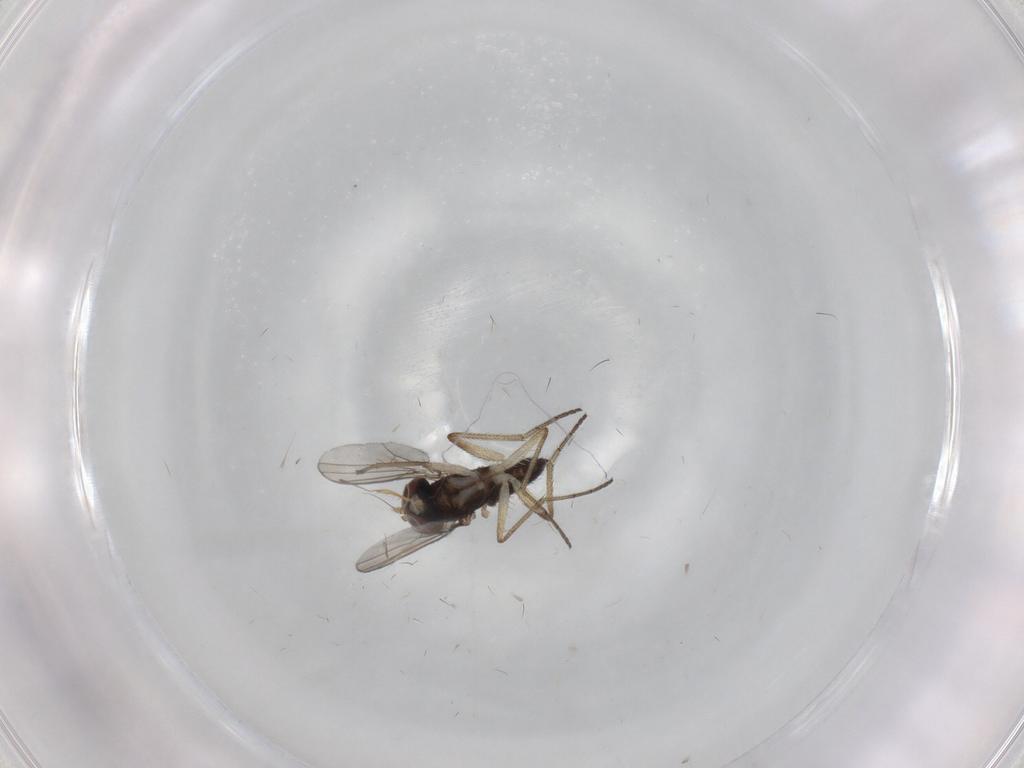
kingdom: Animalia
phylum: Arthropoda
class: Insecta
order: Diptera
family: Dolichopodidae
